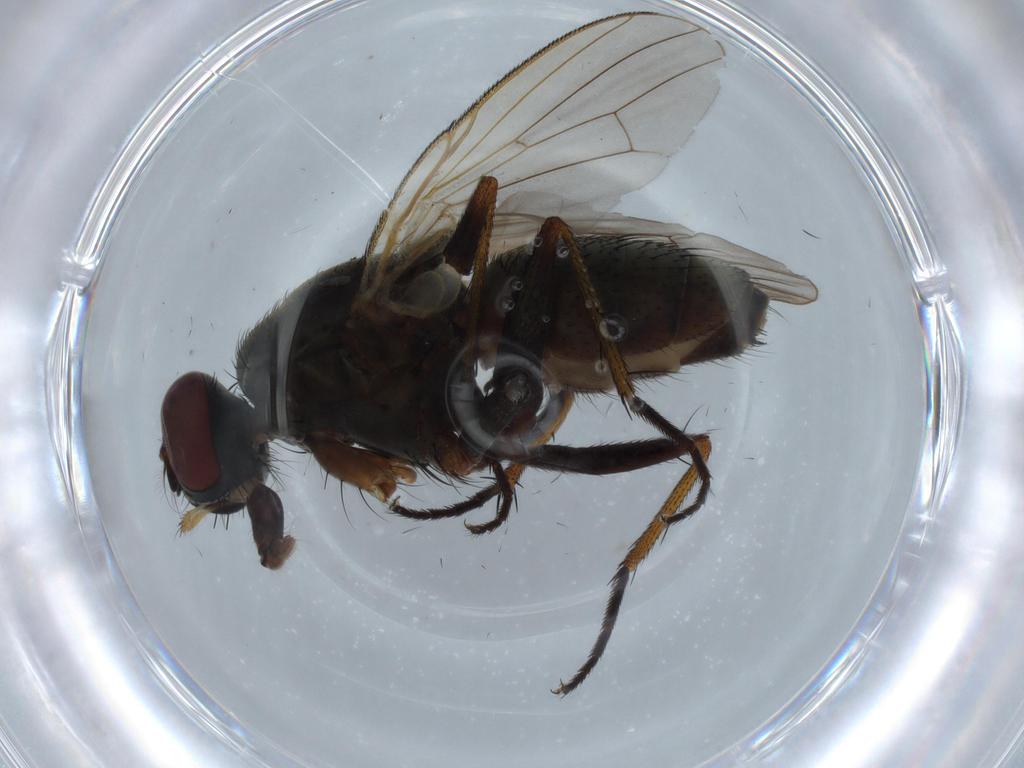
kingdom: Animalia
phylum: Arthropoda
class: Insecta
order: Diptera
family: Muscidae
